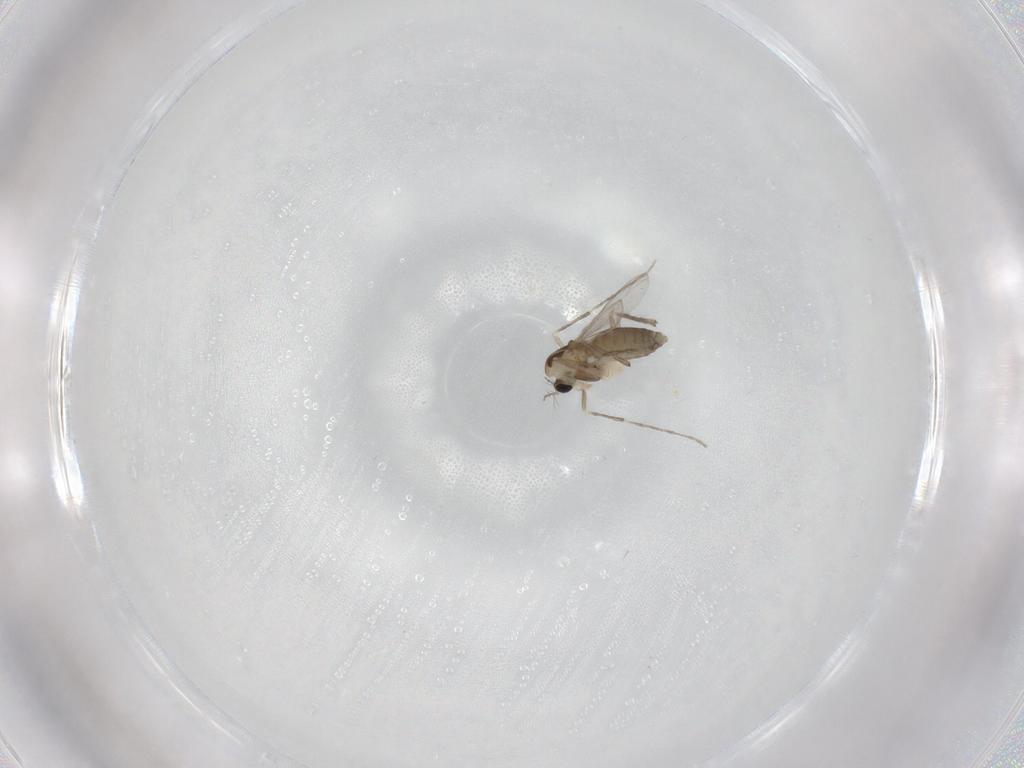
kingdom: Animalia
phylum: Arthropoda
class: Insecta
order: Diptera
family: Chironomidae
